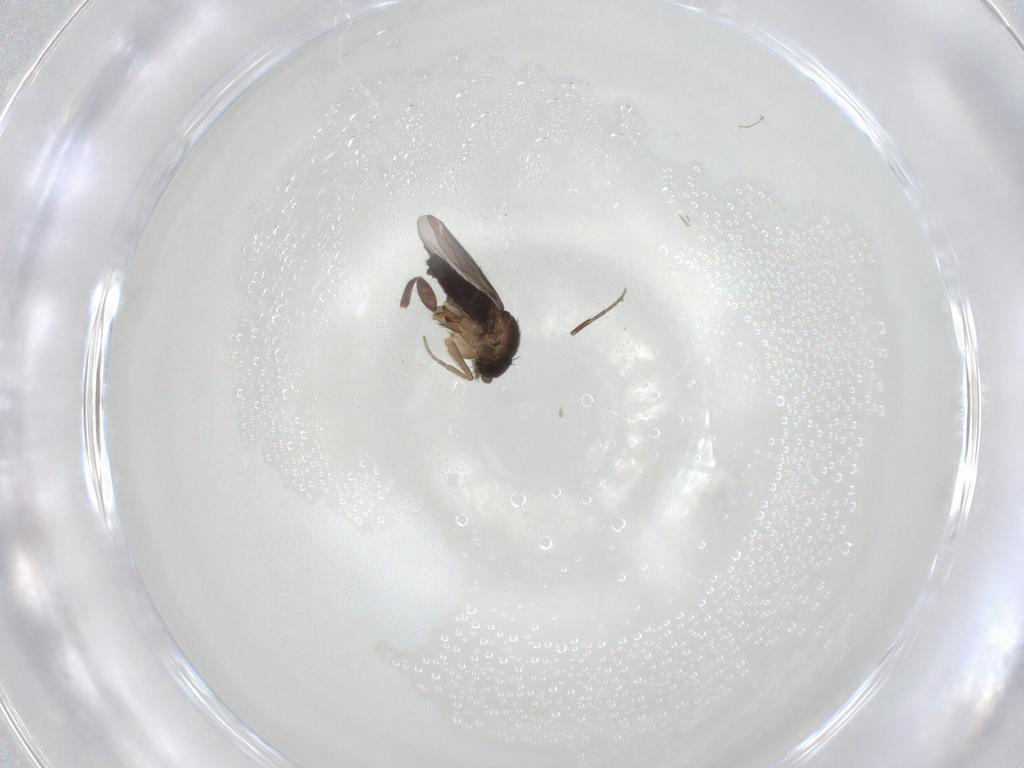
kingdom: Animalia
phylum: Arthropoda
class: Insecta
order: Diptera
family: Phoridae
